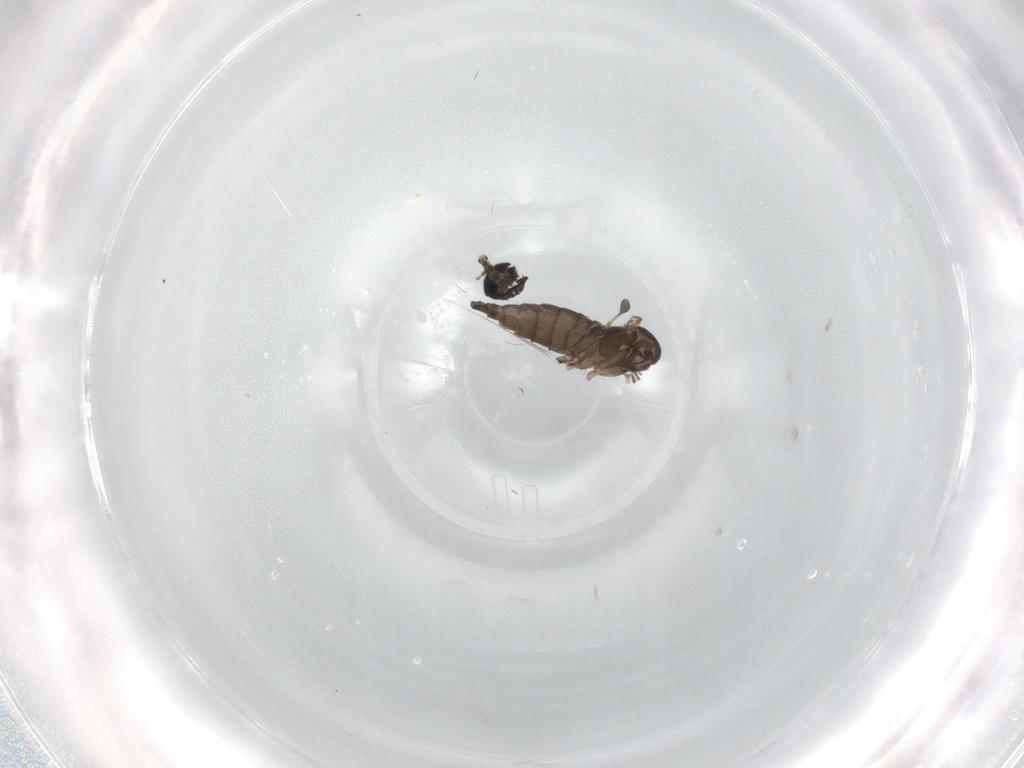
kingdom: Animalia
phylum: Arthropoda
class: Insecta
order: Diptera
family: Sciaridae
